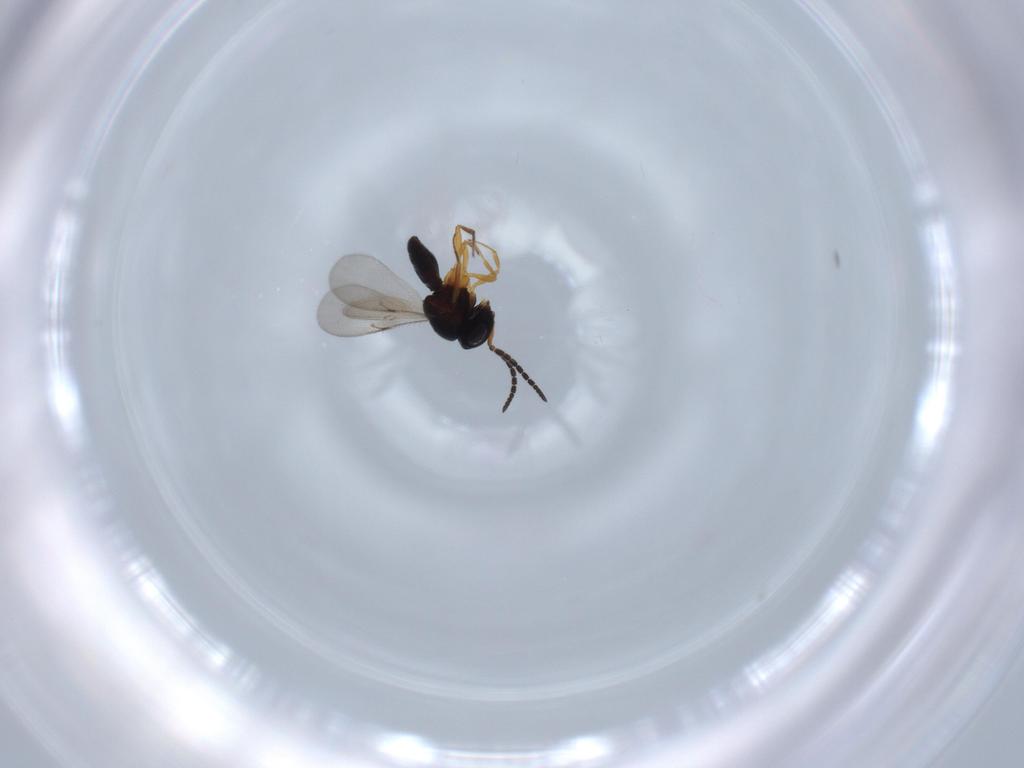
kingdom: Animalia
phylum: Arthropoda
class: Insecta
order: Coleoptera
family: Curculionidae
